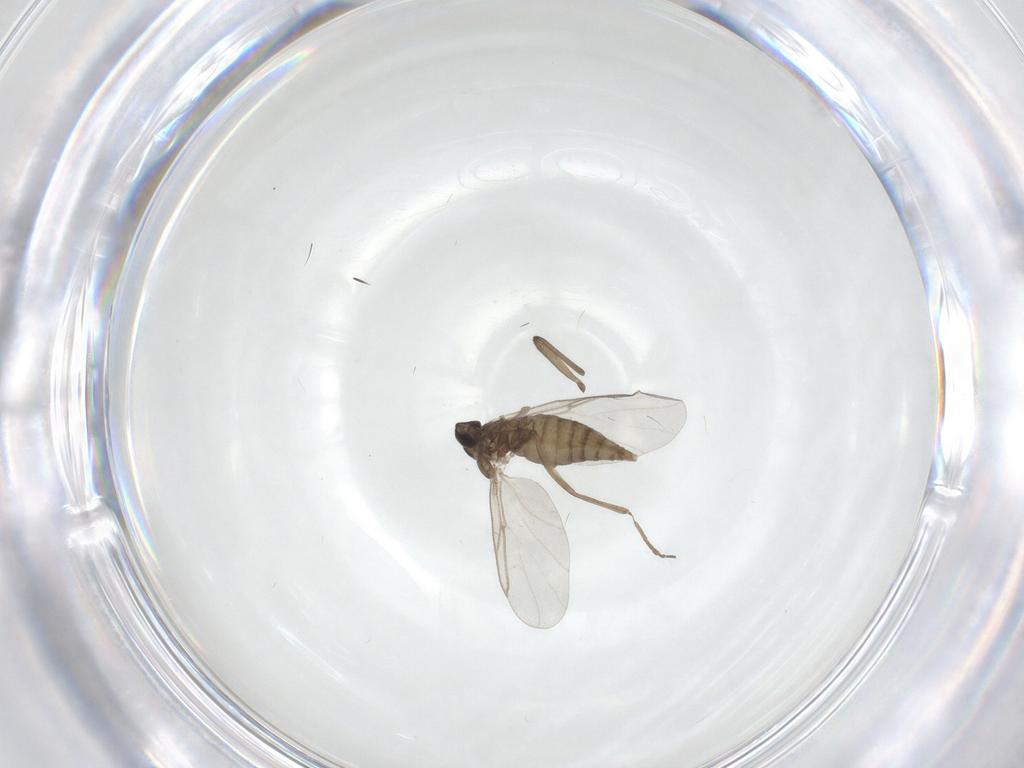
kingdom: Animalia
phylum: Arthropoda
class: Insecta
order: Diptera
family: Cecidomyiidae
